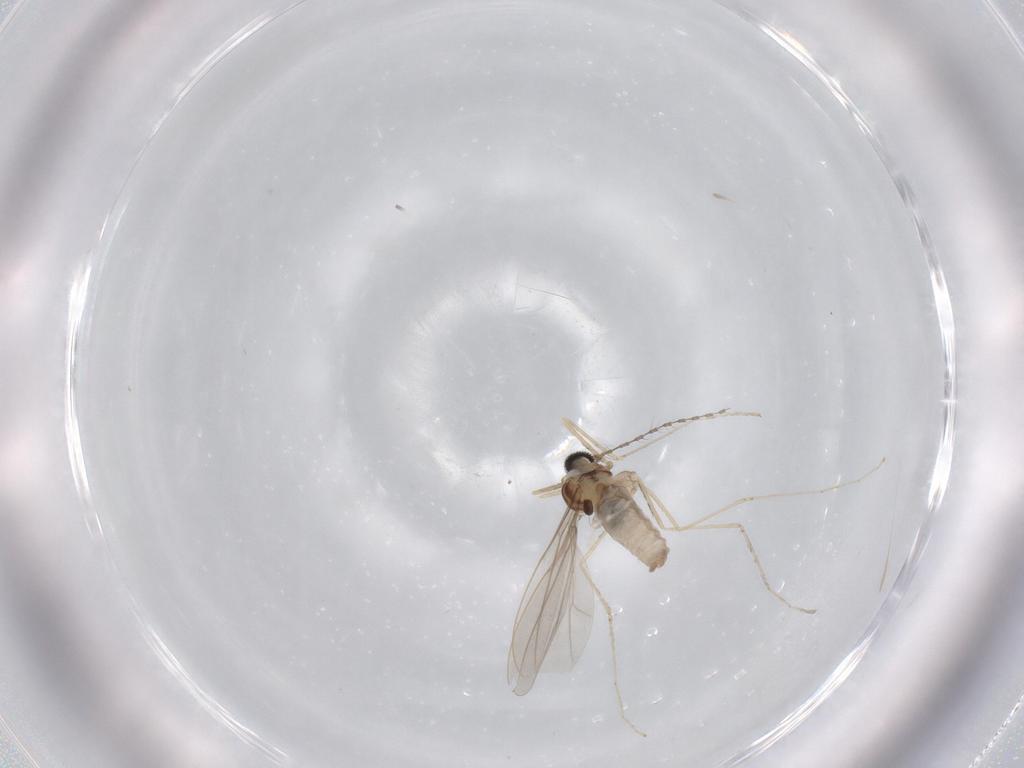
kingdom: Animalia
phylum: Arthropoda
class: Insecta
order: Diptera
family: Cecidomyiidae
